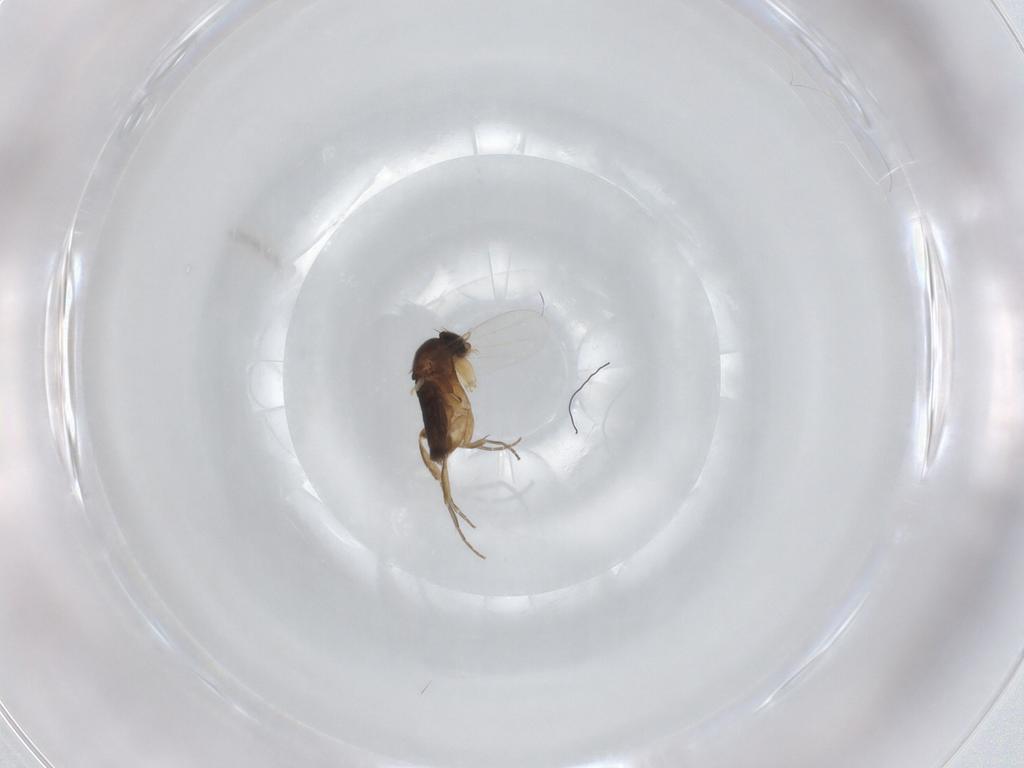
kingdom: Animalia
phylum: Arthropoda
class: Insecta
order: Diptera
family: Phoridae
